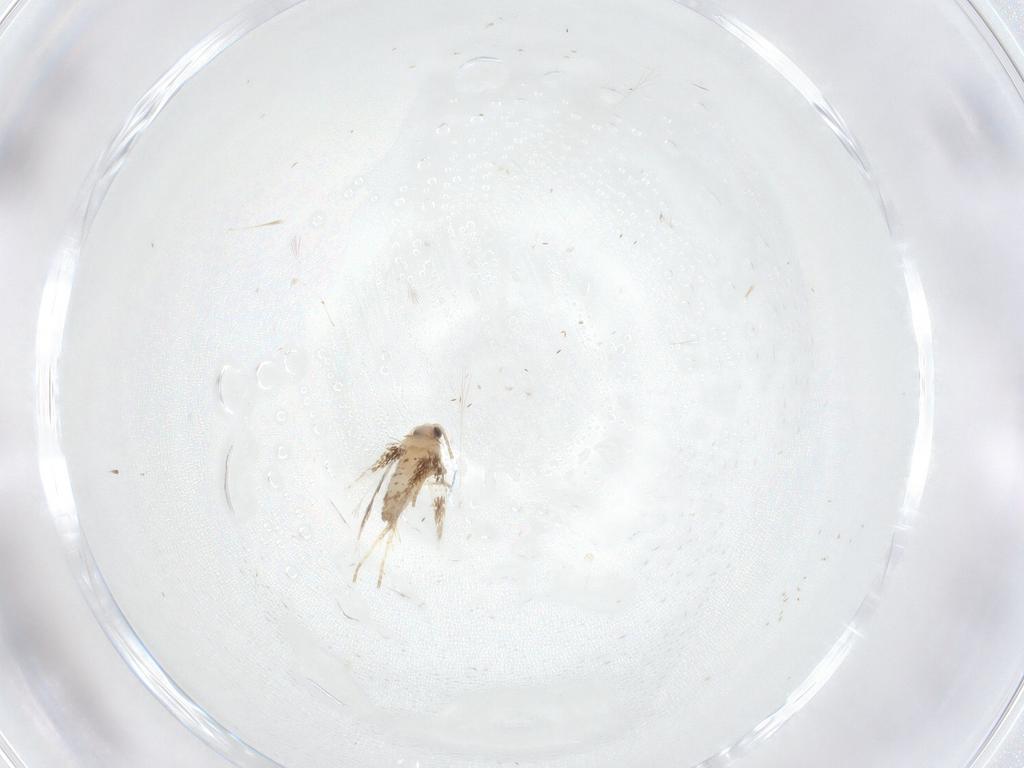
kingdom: Animalia
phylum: Arthropoda
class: Insecta
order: Lepidoptera
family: Nepticulidae
